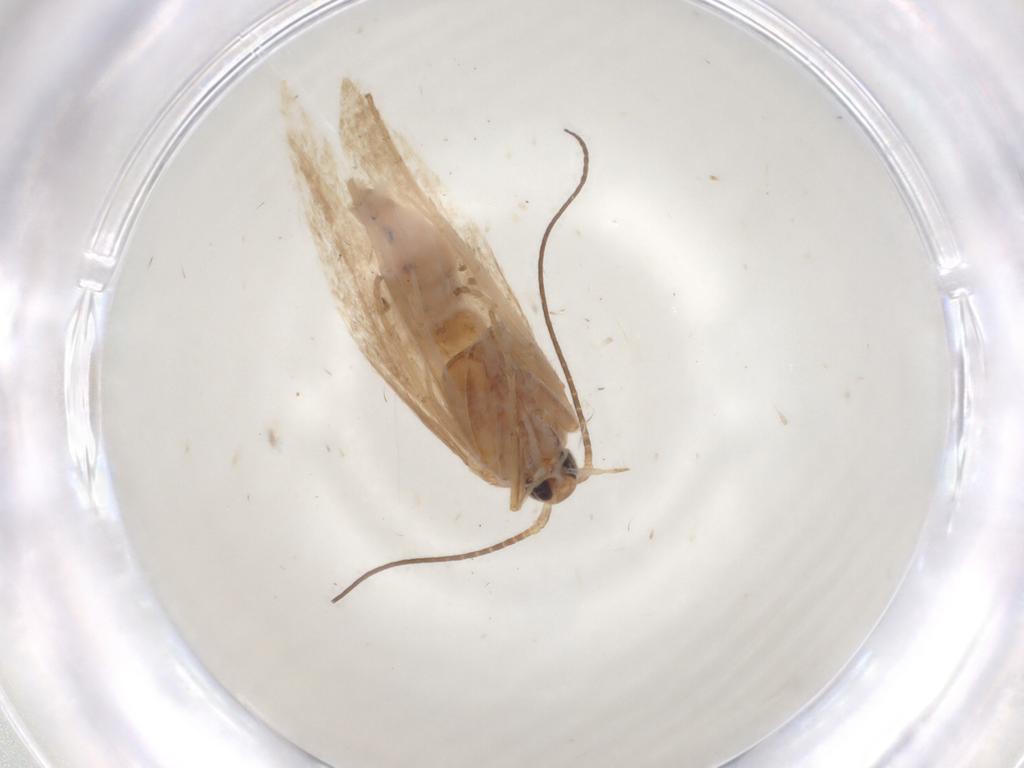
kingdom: Animalia
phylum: Arthropoda
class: Insecta
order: Lepidoptera
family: Coleophoridae
